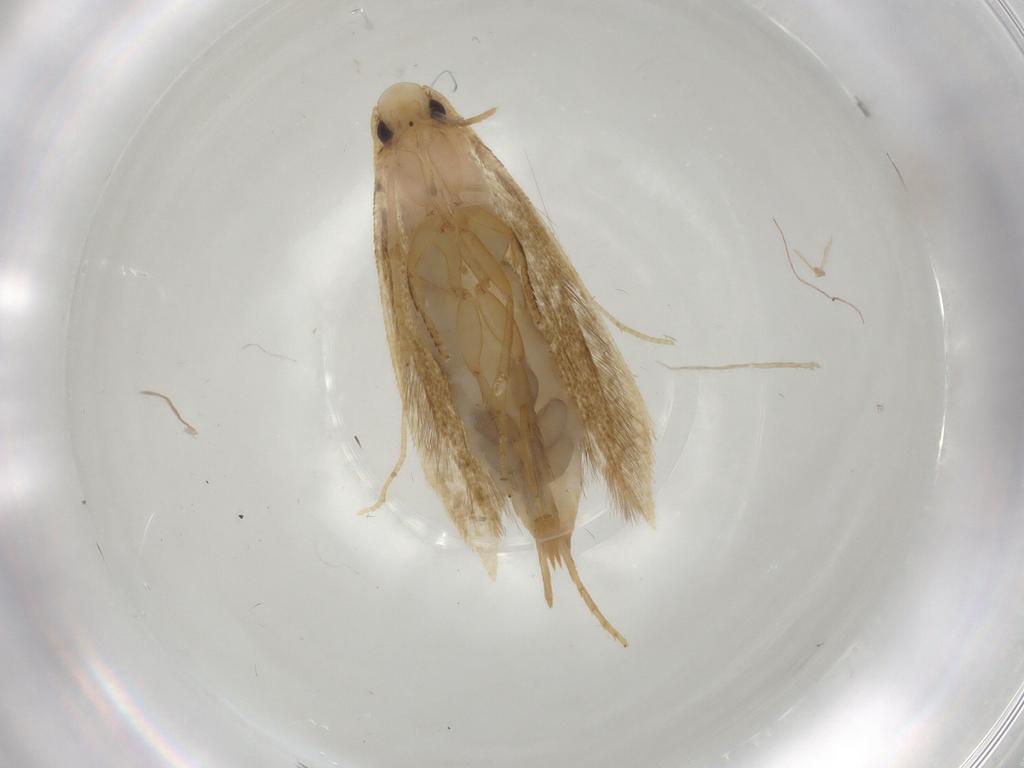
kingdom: Animalia
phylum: Arthropoda
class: Insecta
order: Lepidoptera
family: Tineidae
